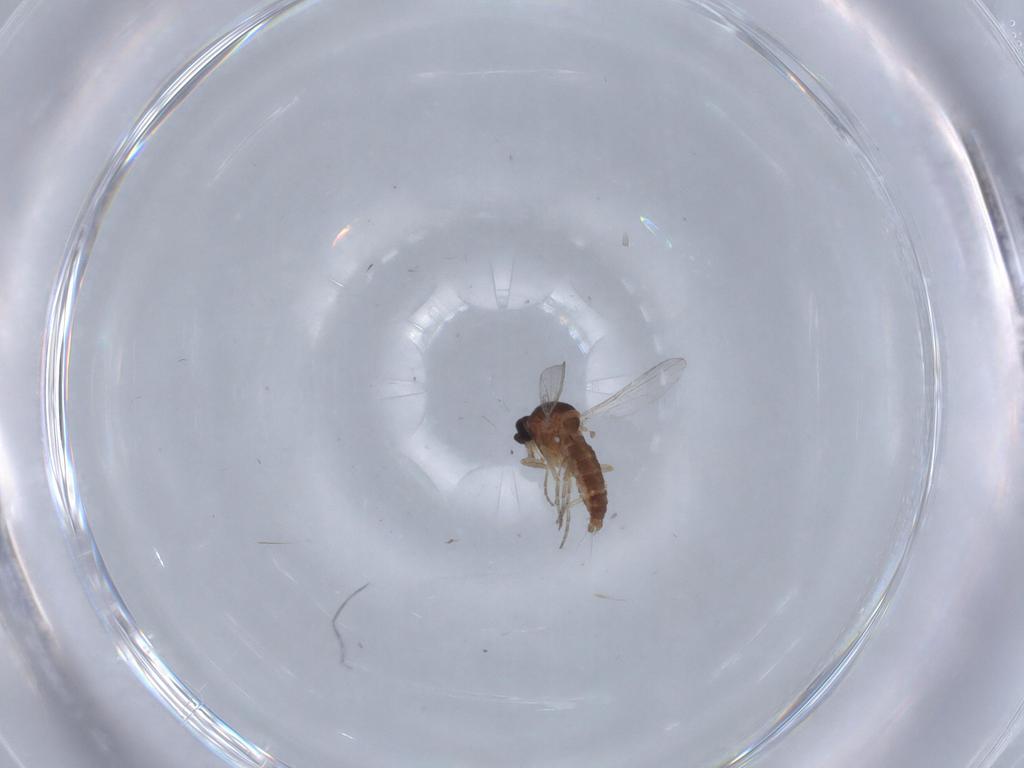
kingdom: Animalia
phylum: Arthropoda
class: Insecta
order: Diptera
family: Ceratopogonidae
